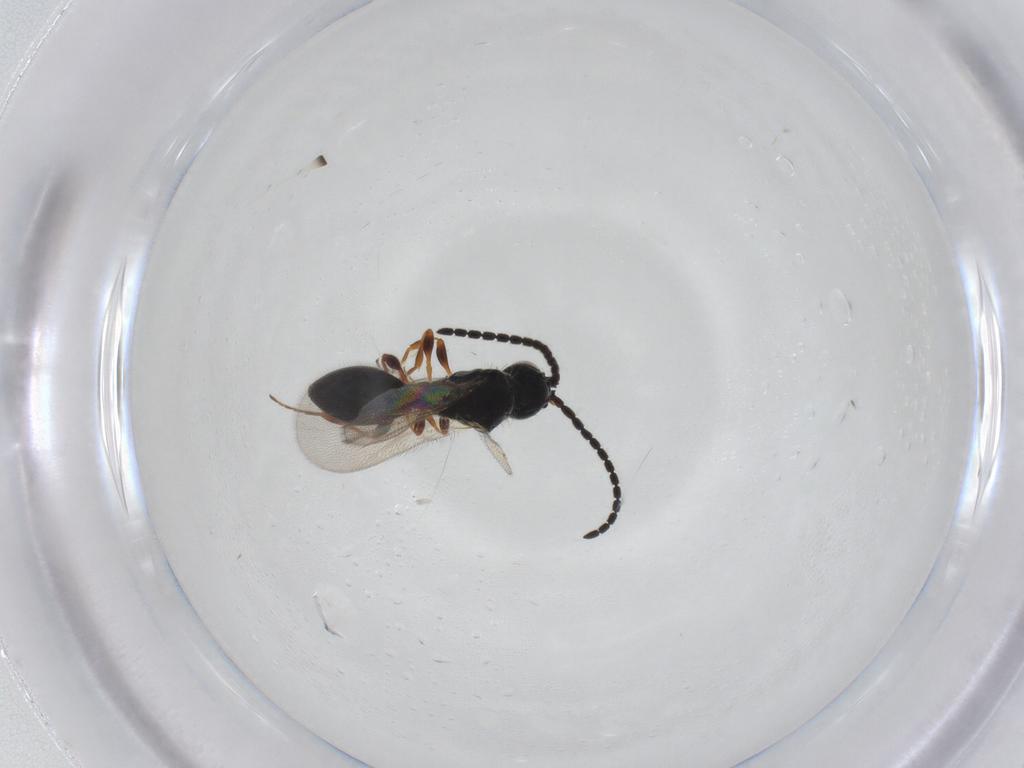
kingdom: Animalia
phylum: Arthropoda
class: Insecta
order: Hymenoptera
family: Diapriidae
